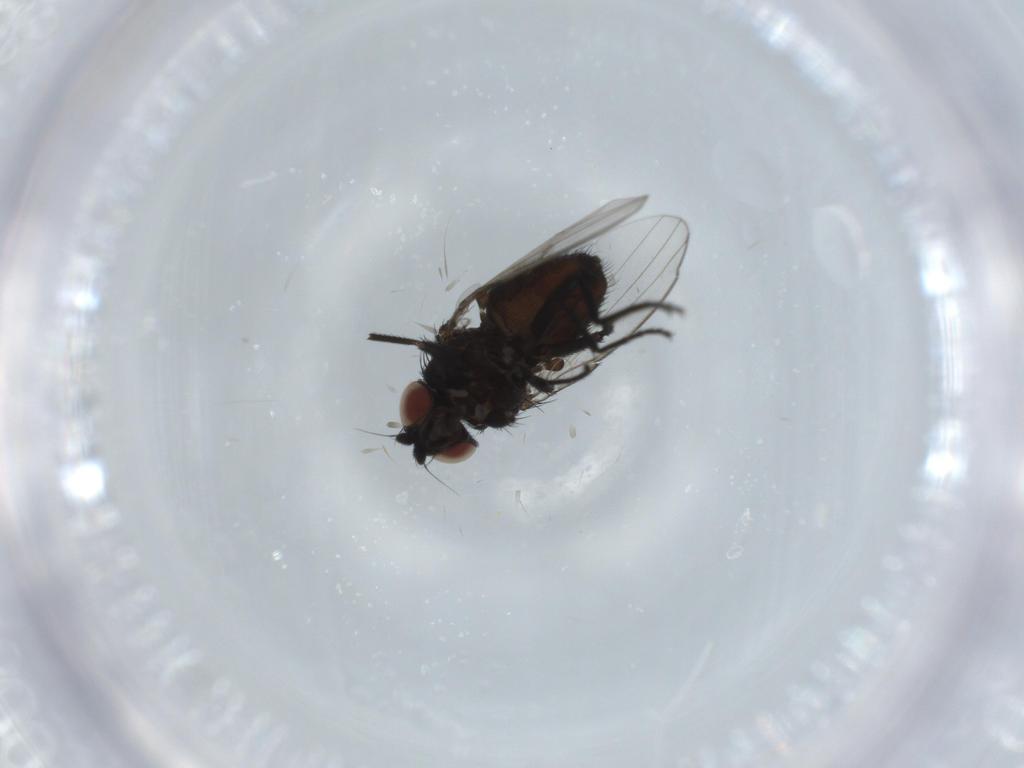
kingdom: Animalia
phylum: Arthropoda
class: Insecta
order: Diptera
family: Milichiidae
